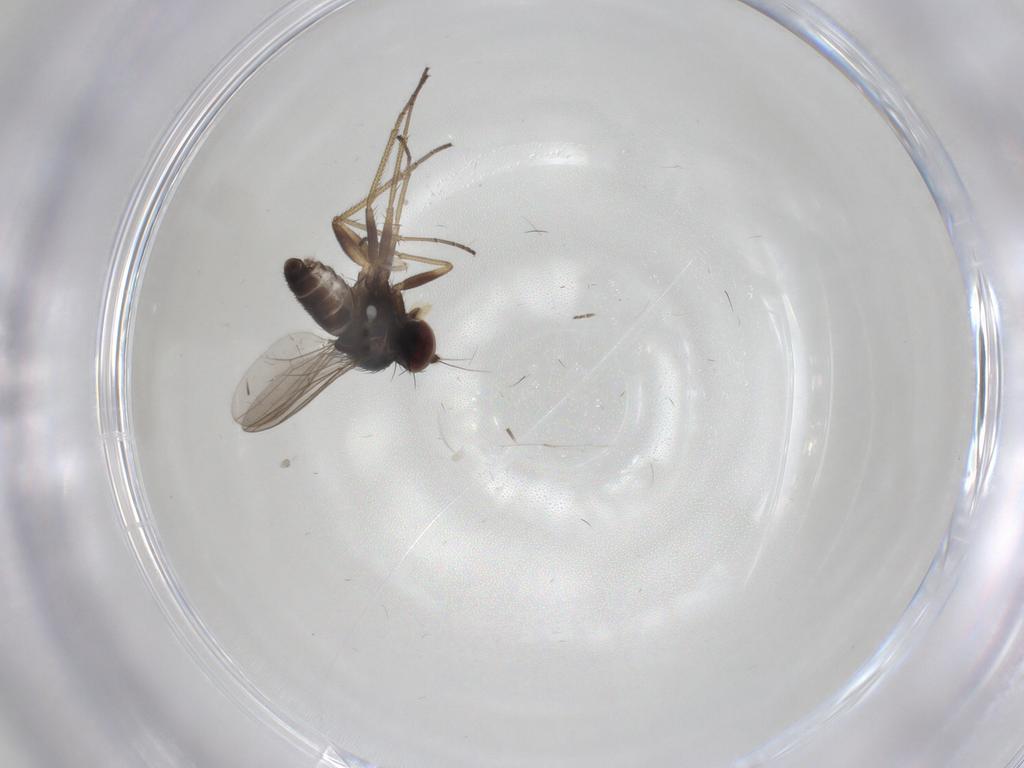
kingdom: Animalia
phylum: Arthropoda
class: Insecta
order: Diptera
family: Dolichopodidae
